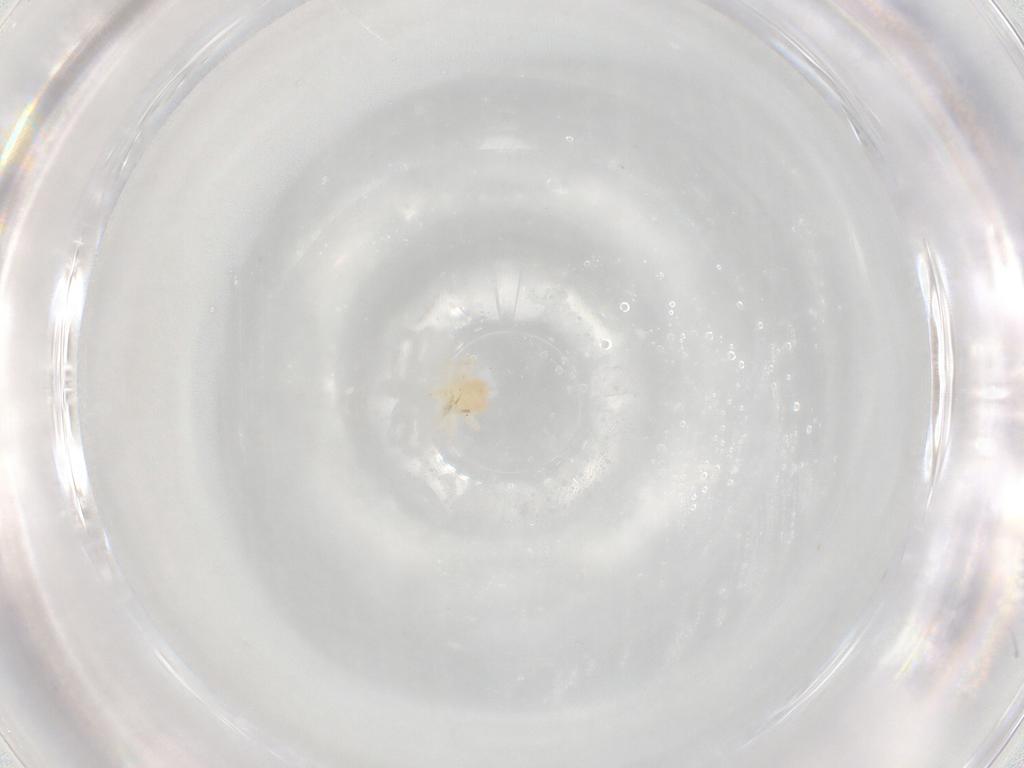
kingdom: Animalia
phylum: Arthropoda
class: Arachnida
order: Trombidiformes
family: Anystidae
